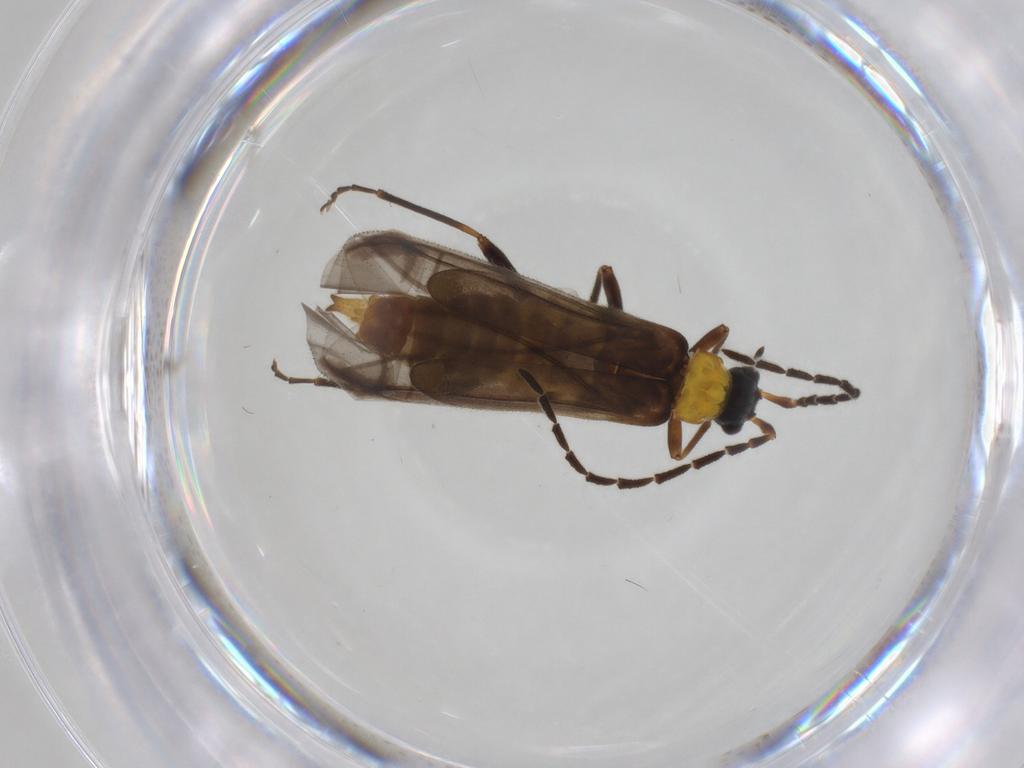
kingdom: Animalia
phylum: Arthropoda
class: Insecta
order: Coleoptera
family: Cantharidae
